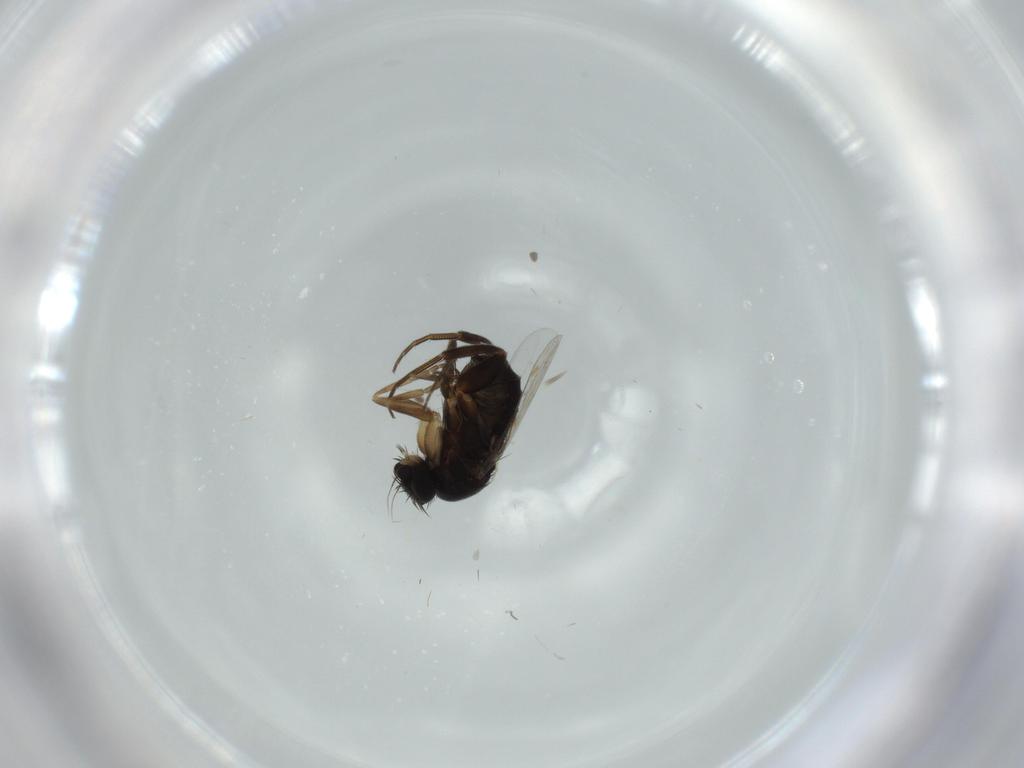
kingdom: Animalia
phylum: Arthropoda
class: Insecta
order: Diptera
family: Phoridae
